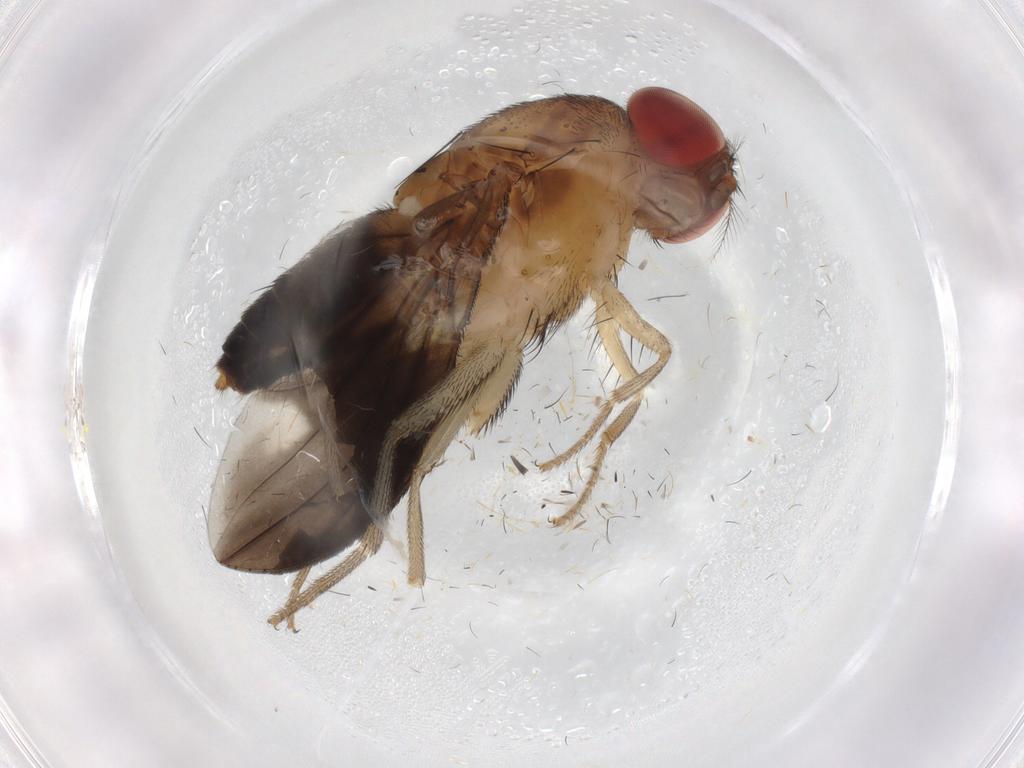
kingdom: Animalia
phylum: Arthropoda
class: Insecta
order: Diptera
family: Drosophilidae
